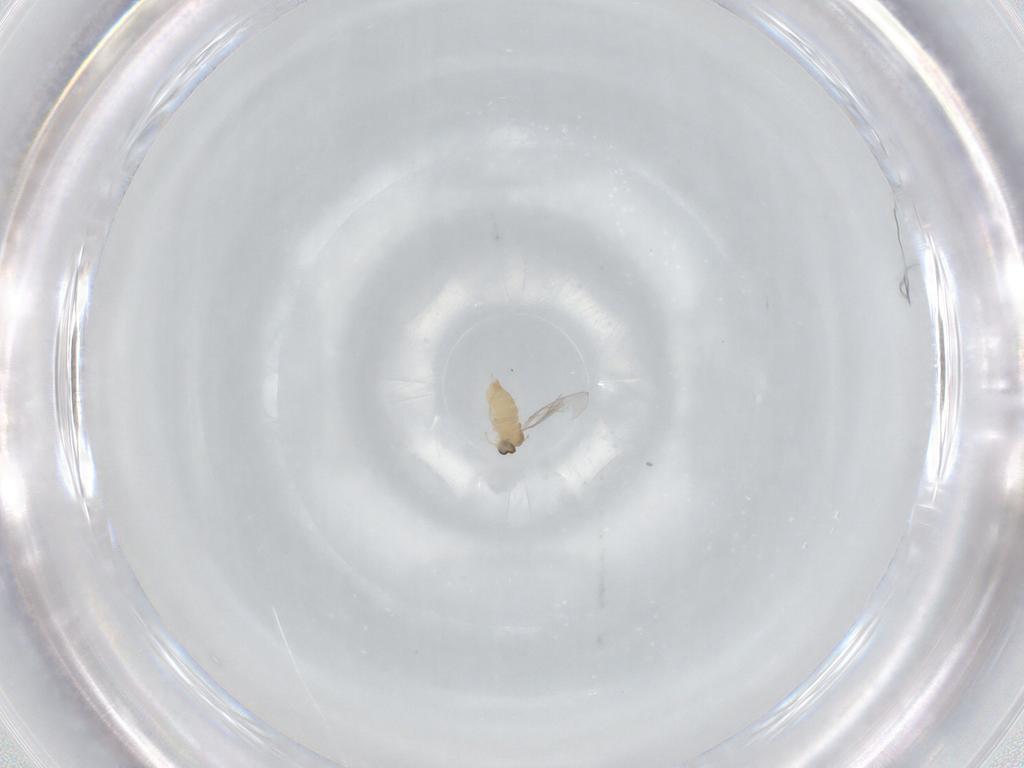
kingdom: Animalia
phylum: Arthropoda
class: Insecta
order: Diptera
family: Cecidomyiidae
